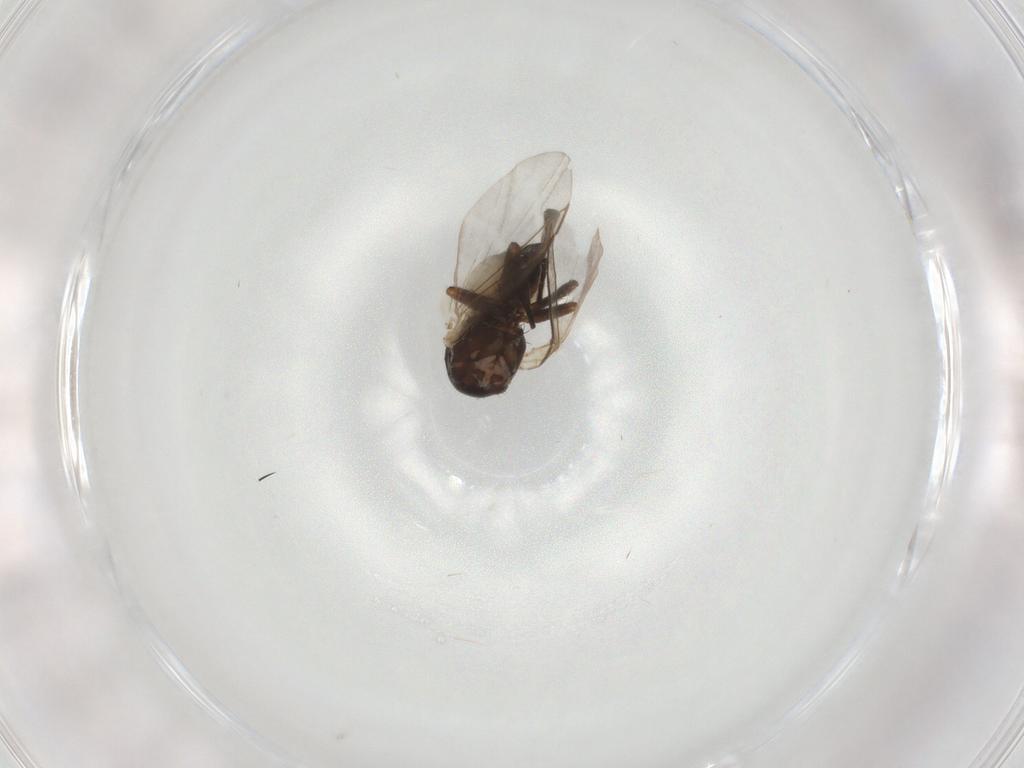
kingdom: Animalia
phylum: Arthropoda
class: Insecta
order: Diptera
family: Agromyzidae
